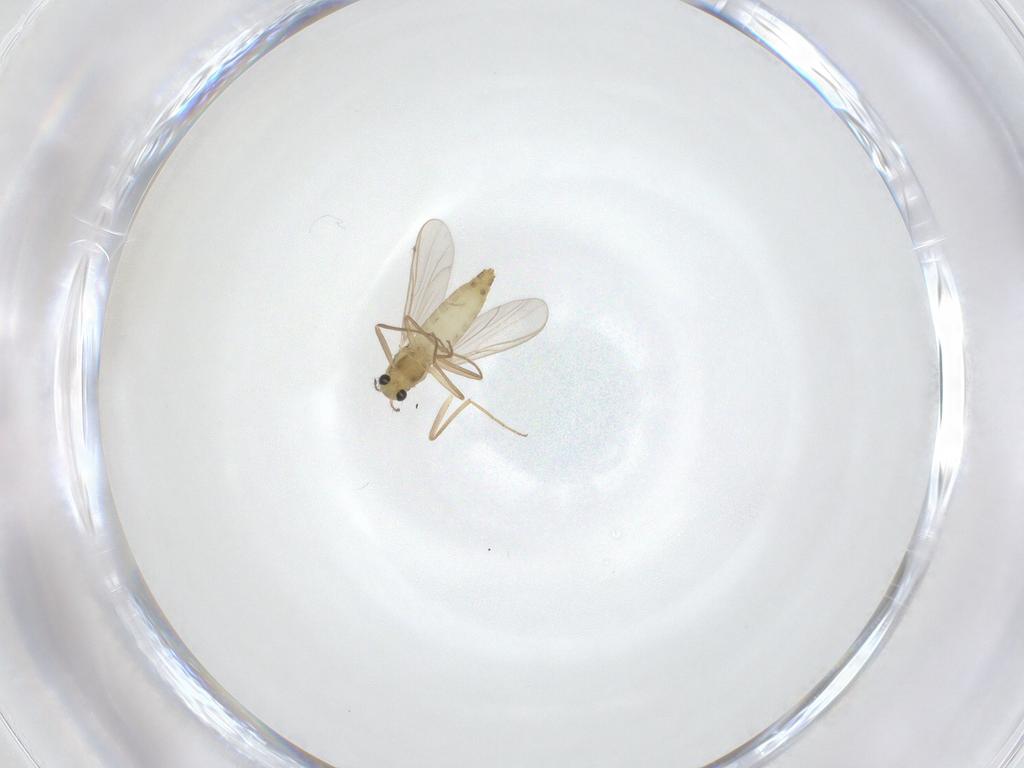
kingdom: Animalia
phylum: Arthropoda
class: Insecta
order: Diptera
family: Chironomidae
